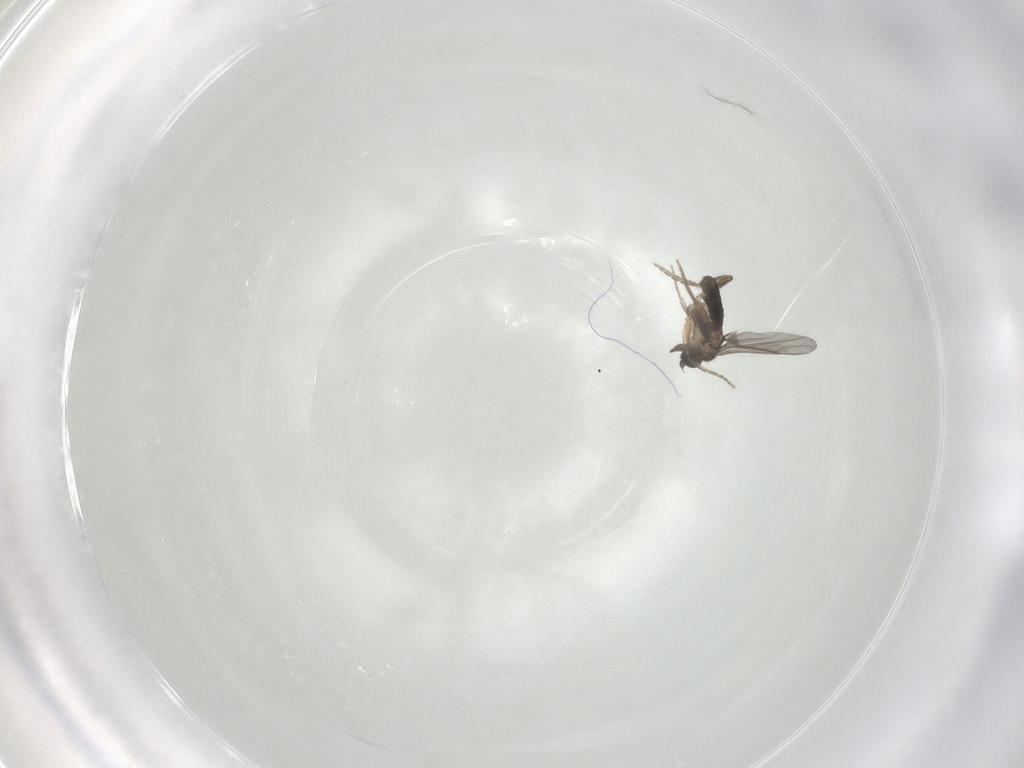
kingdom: Animalia
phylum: Arthropoda
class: Insecta
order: Diptera
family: Phoridae
